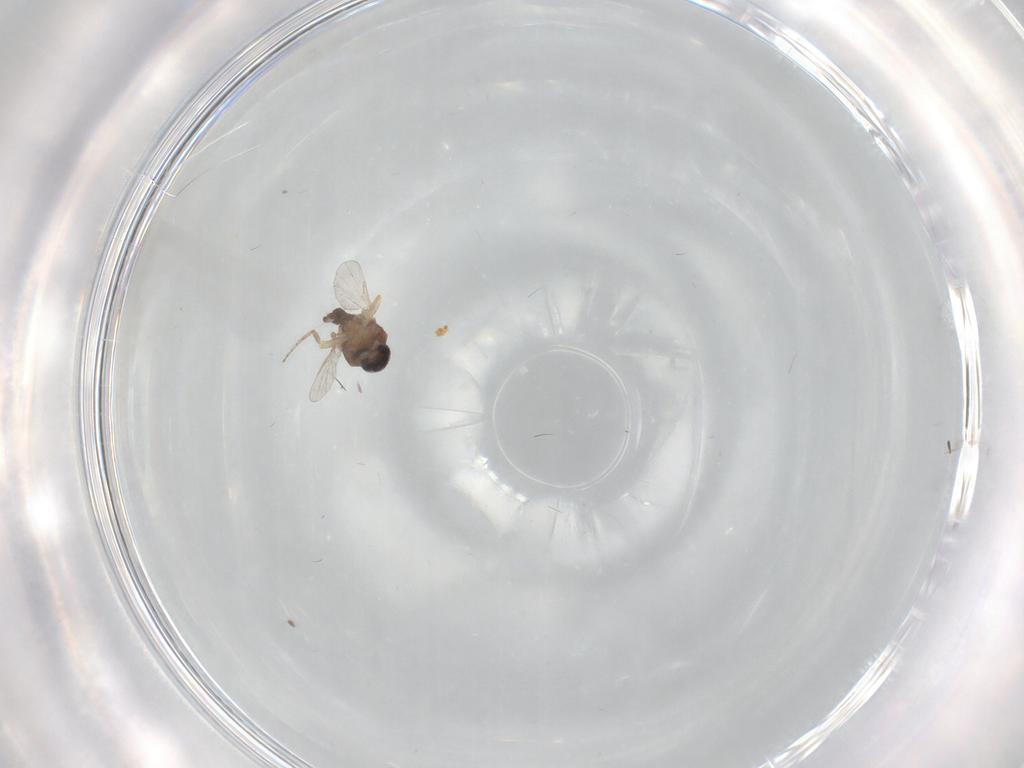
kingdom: Animalia
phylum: Arthropoda
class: Insecta
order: Diptera
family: Ceratopogonidae
